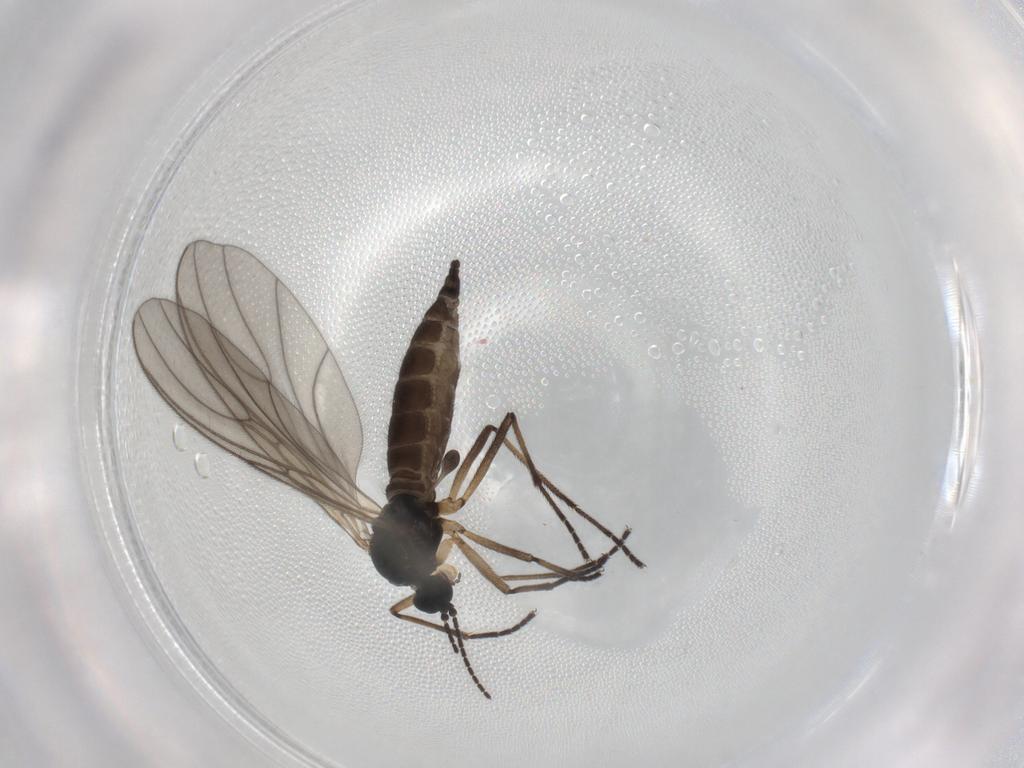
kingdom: Animalia
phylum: Arthropoda
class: Insecta
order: Diptera
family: Sciaridae
